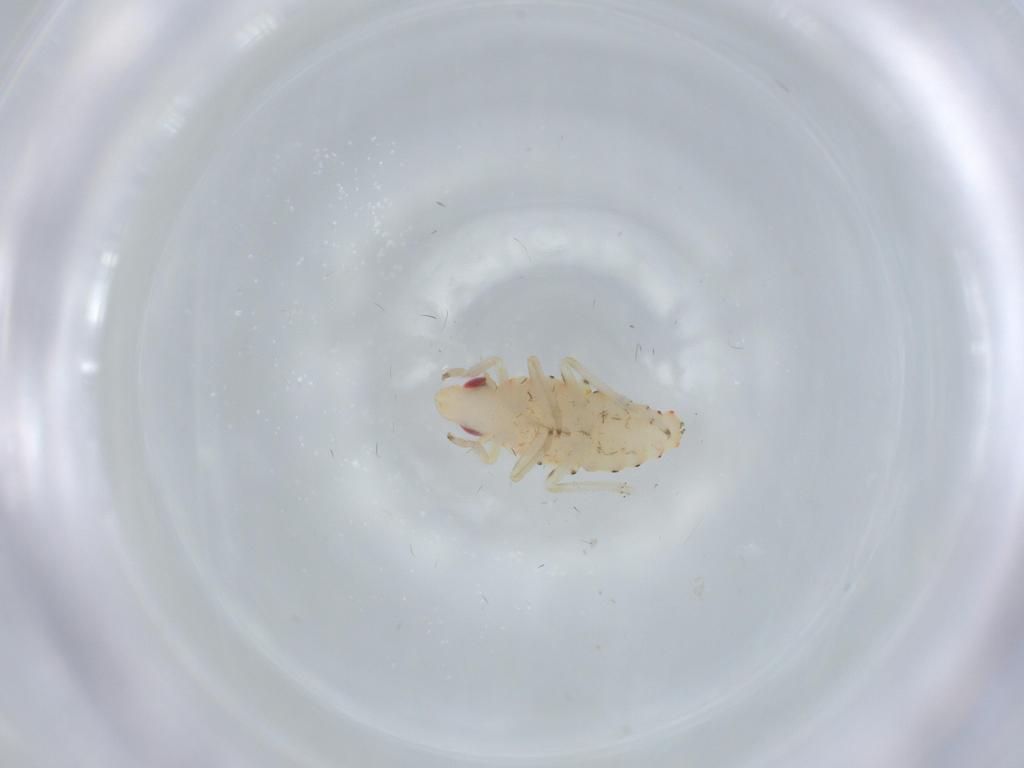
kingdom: Animalia
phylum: Arthropoda
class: Insecta
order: Hemiptera
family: Tropiduchidae
